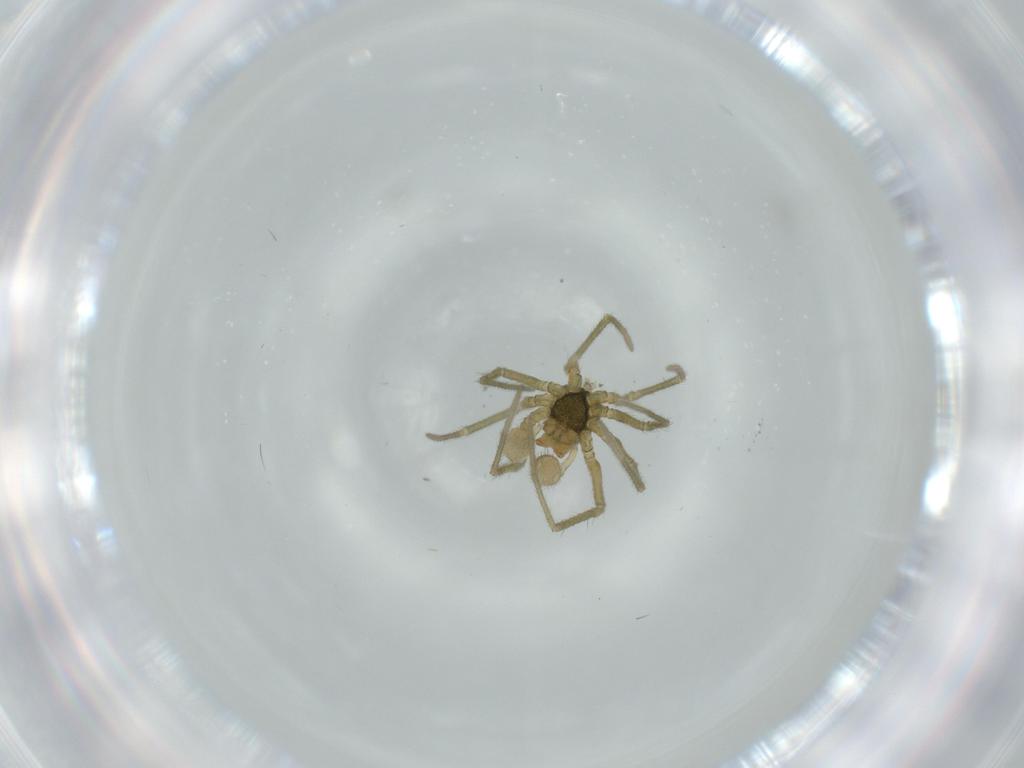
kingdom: Animalia
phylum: Arthropoda
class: Arachnida
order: Araneae
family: Linyphiidae
